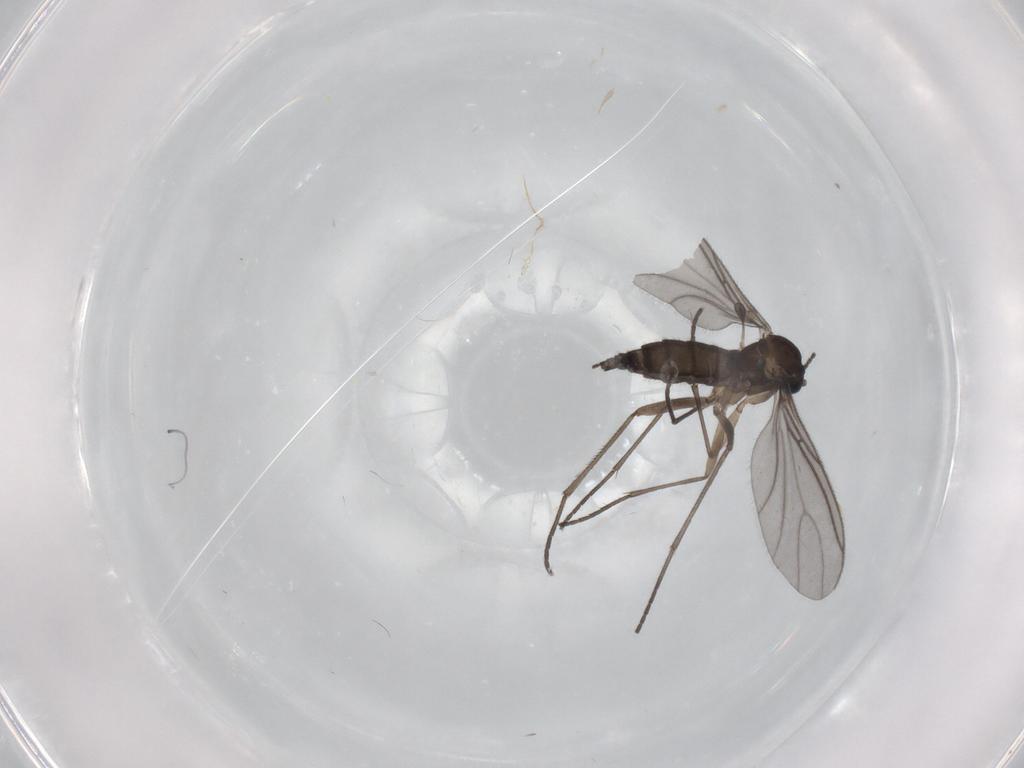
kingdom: Animalia
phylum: Arthropoda
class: Insecta
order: Diptera
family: Sciaridae
